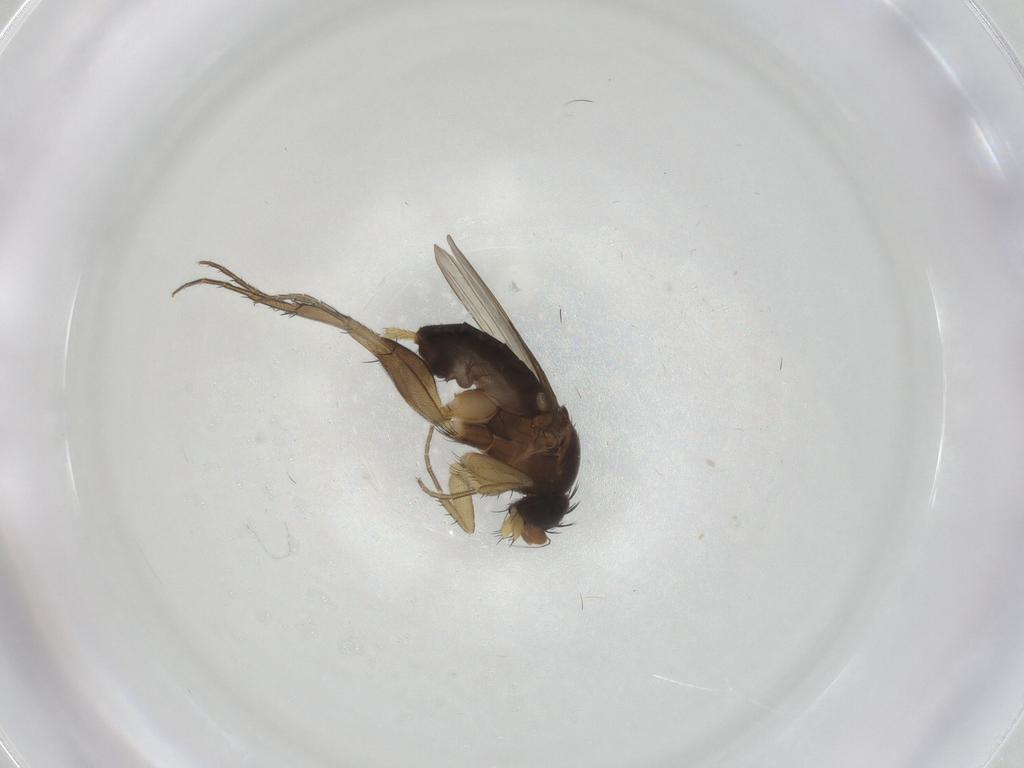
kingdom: Animalia
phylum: Arthropoda
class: Insecta
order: Diptera
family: Phoridae
